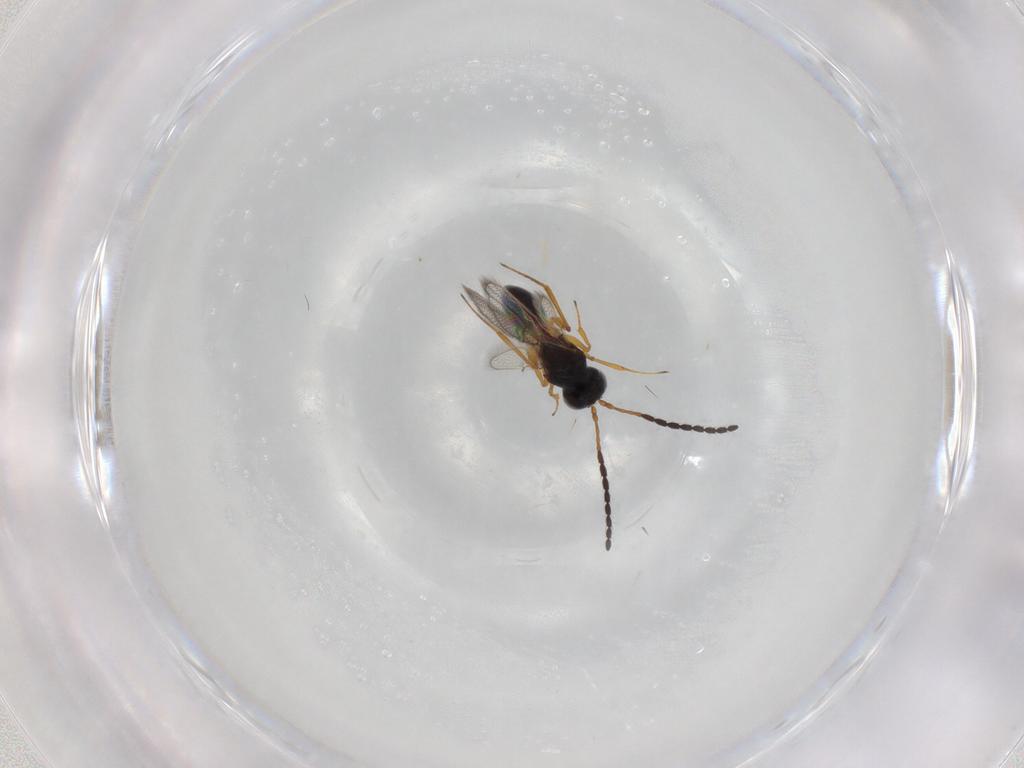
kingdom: Animalia
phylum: Arthropoda
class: Insecta
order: Hymenoptera
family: Figitidae
